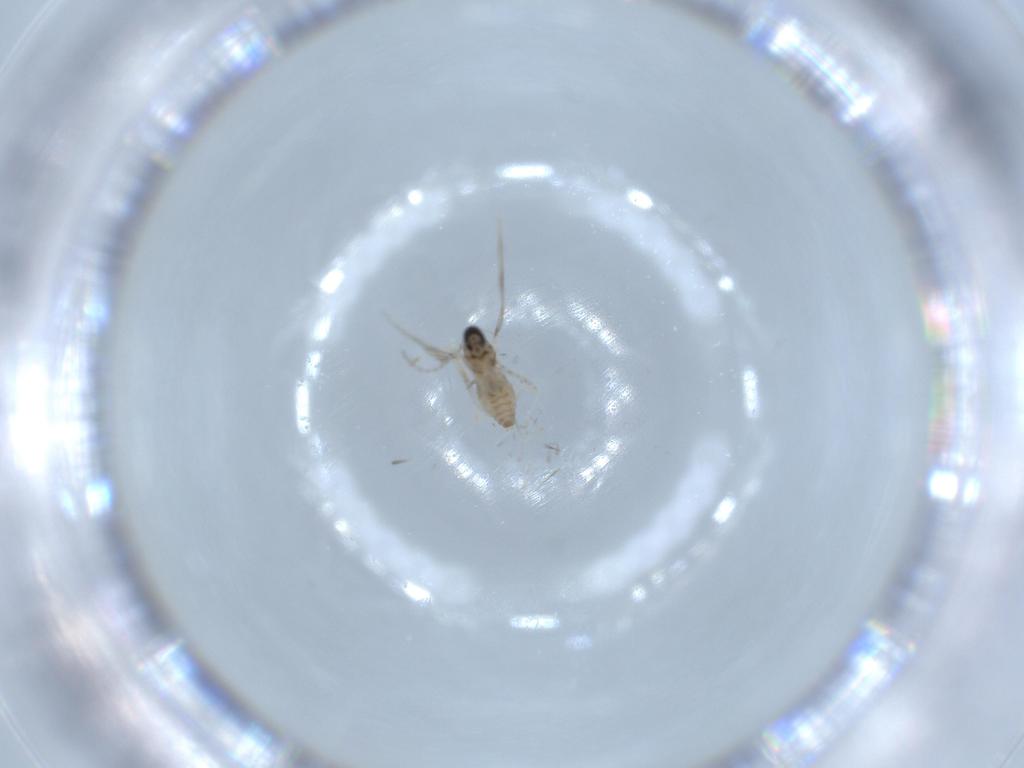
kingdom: Animalia
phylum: Arthropoda
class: Insecta
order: Diptera
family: Cecidomyiidae
